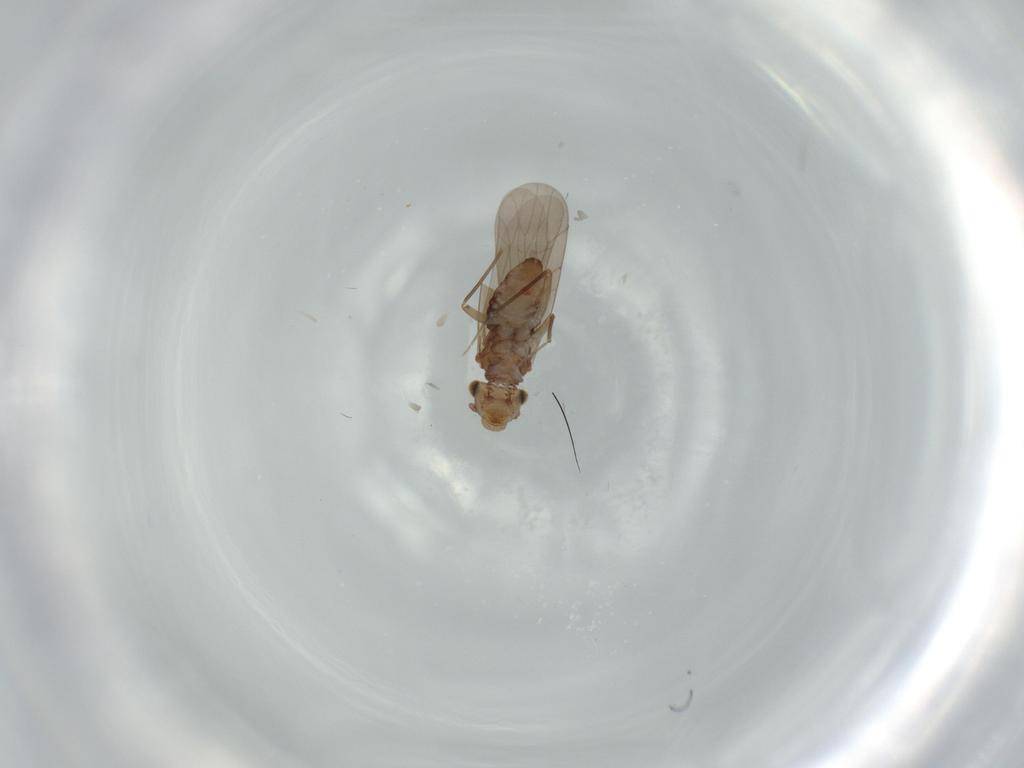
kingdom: Animalia
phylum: Arthropoda
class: Insecta
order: Psocodea
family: Lepidopsocidae
